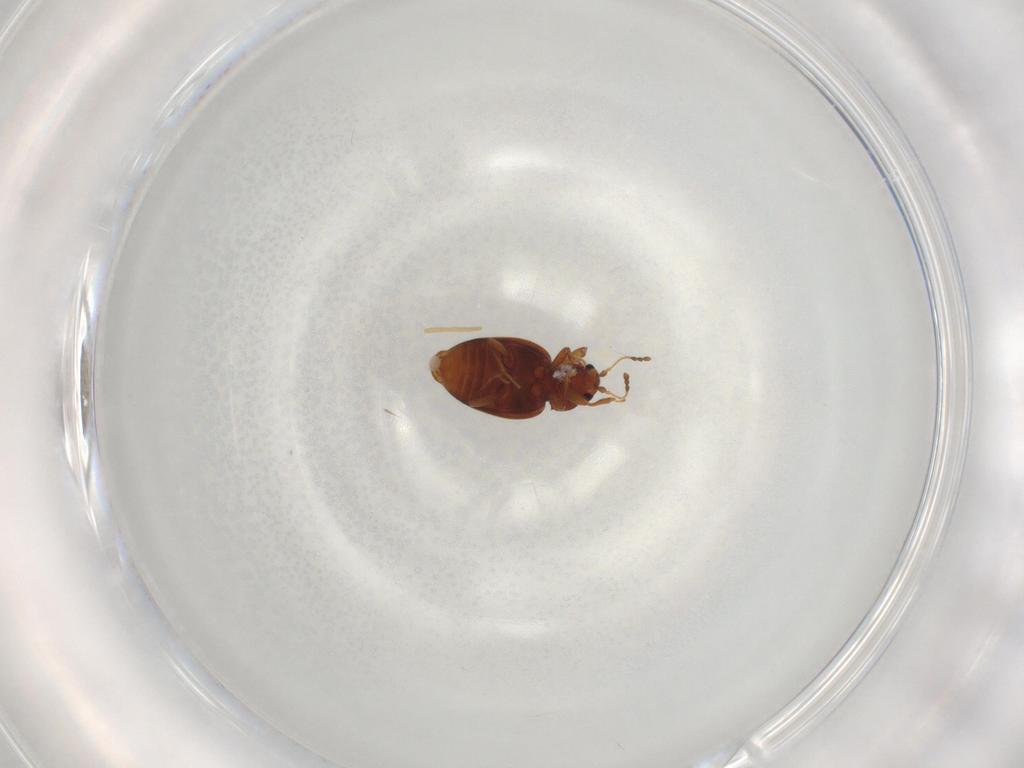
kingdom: Animalia
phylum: Arthropoda
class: Insecta
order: Coleoptera
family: Latridiidae
